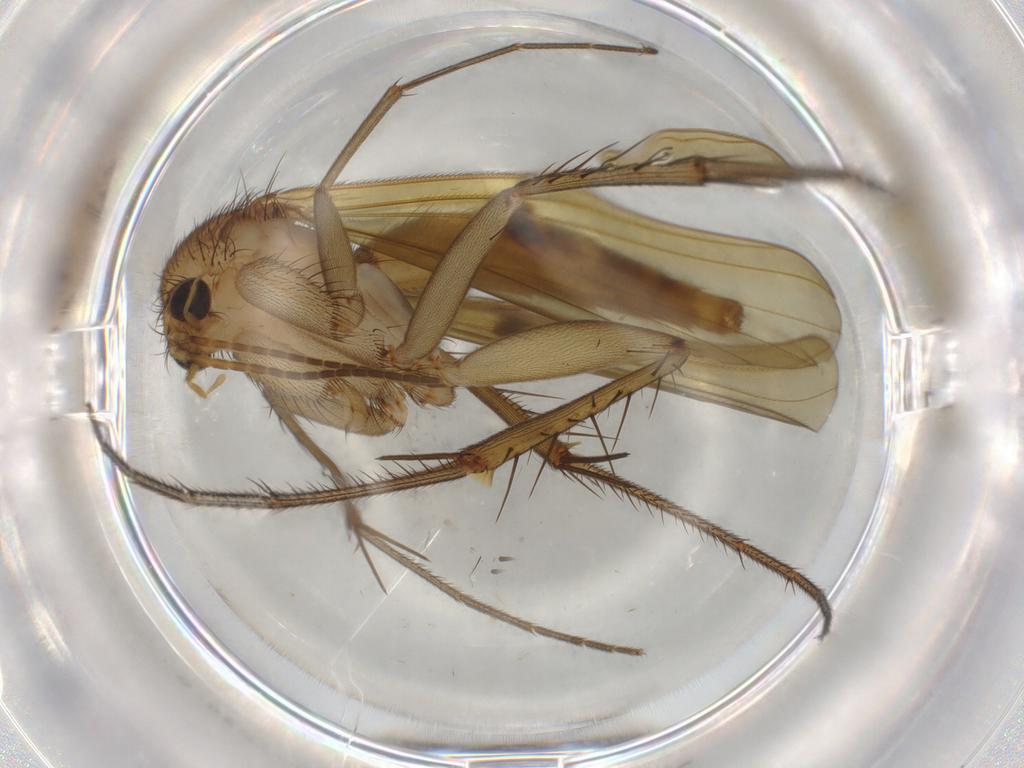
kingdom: Animalia
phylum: Arthropoda
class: Insecta
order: Diptera
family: Mycetophilidae
